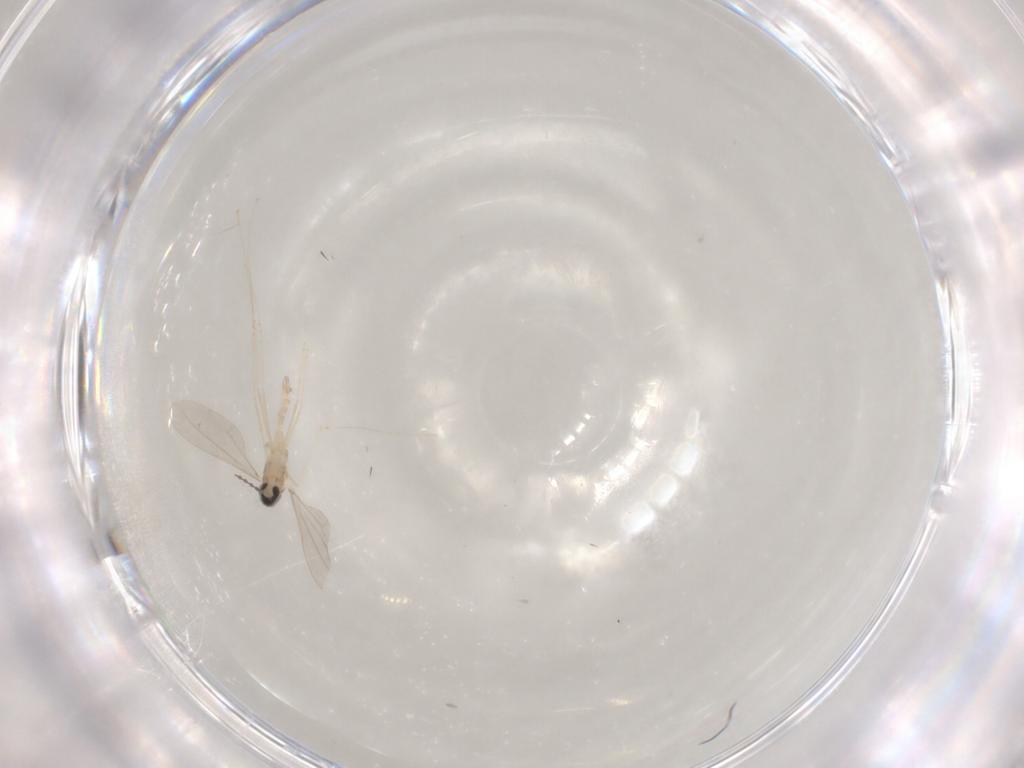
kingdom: Animalia
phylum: Arthropoda
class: Insecta
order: Diptera
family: Cecidomyiidae
